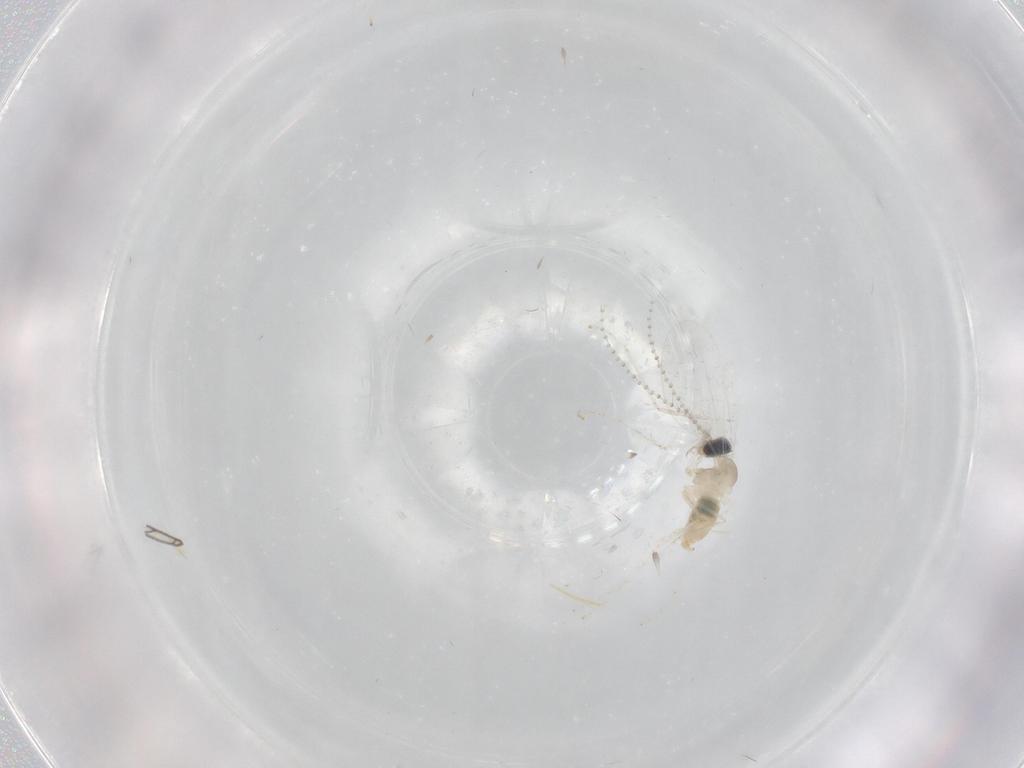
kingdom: Animalia
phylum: Arthropoda
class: Insecta
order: Diptera
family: Cecidomyiidae
